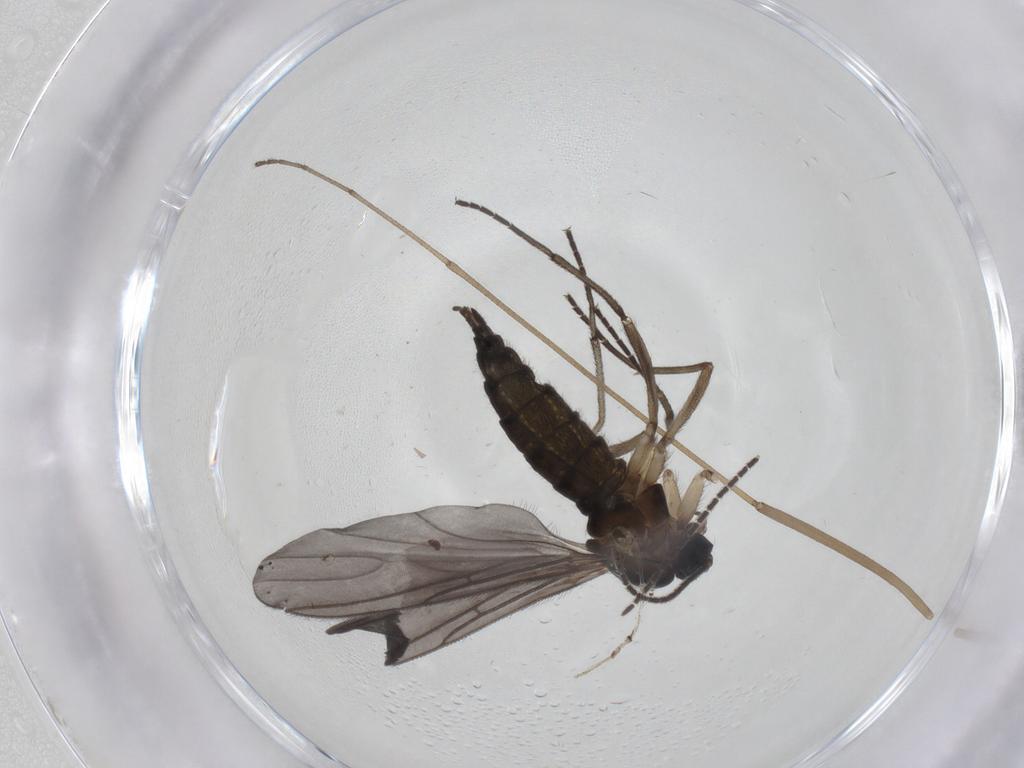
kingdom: Animalia
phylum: Arthropoda
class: Insecta
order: Diptera
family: Sciaridae
